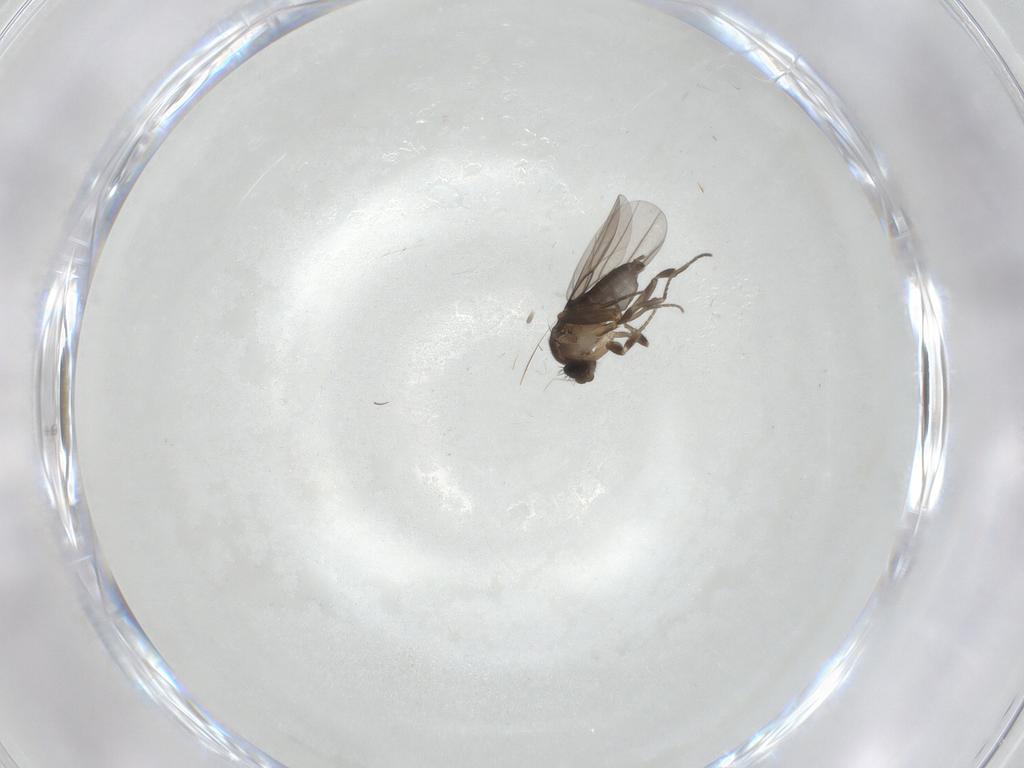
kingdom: Animalia
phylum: Arthropoda
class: Insecta
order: Diptera
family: Phoridae
